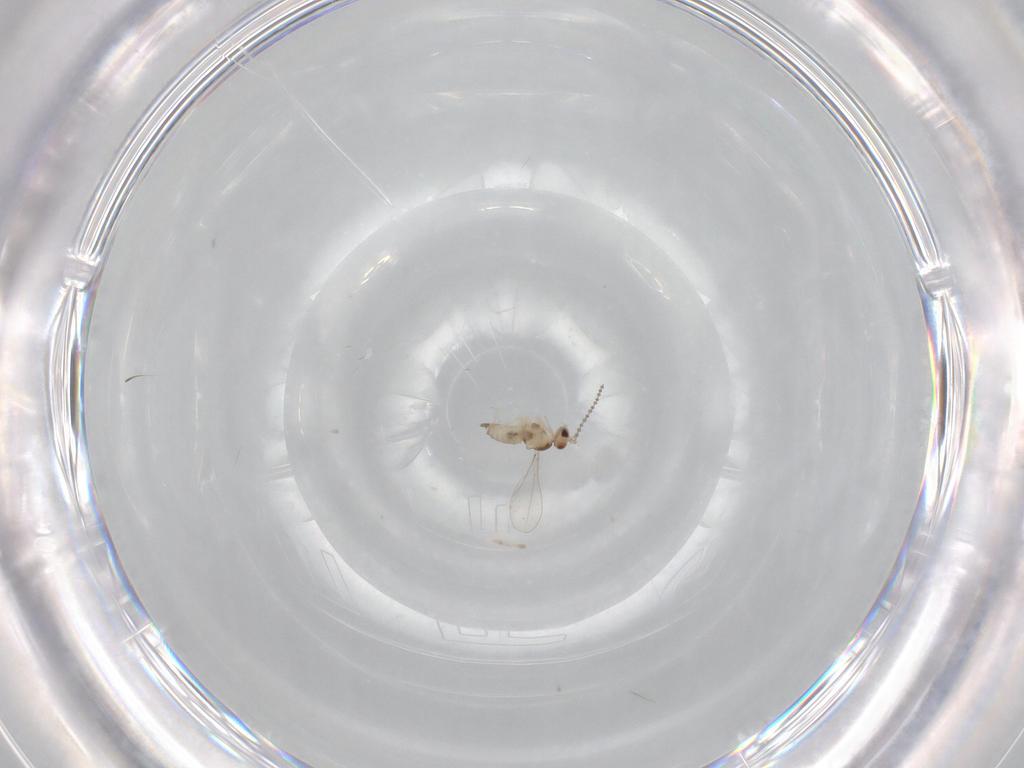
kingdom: Animalia
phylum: Arthropoda
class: Insecta
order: Diptera
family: Cecidomyiidae
